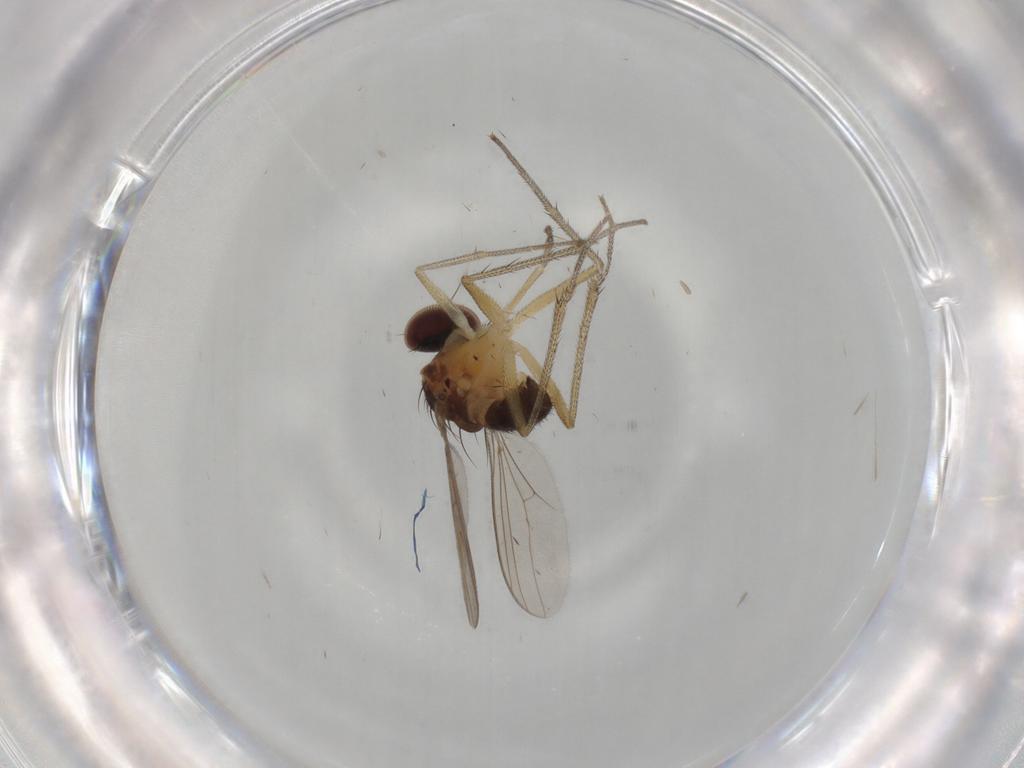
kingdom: Animalia
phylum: Arthropoda
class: Insecta
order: Diptera
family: Dolichopodidae
